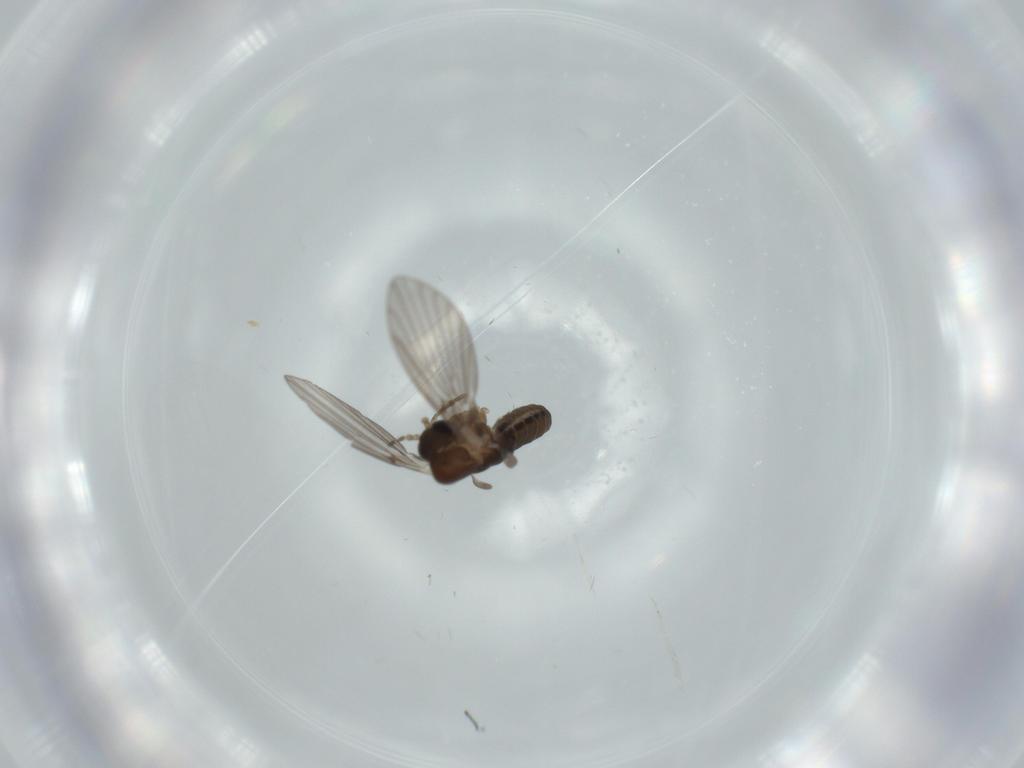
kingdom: Animalia
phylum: Arthropoda
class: Insecta
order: Diptera
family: Psychodidae
